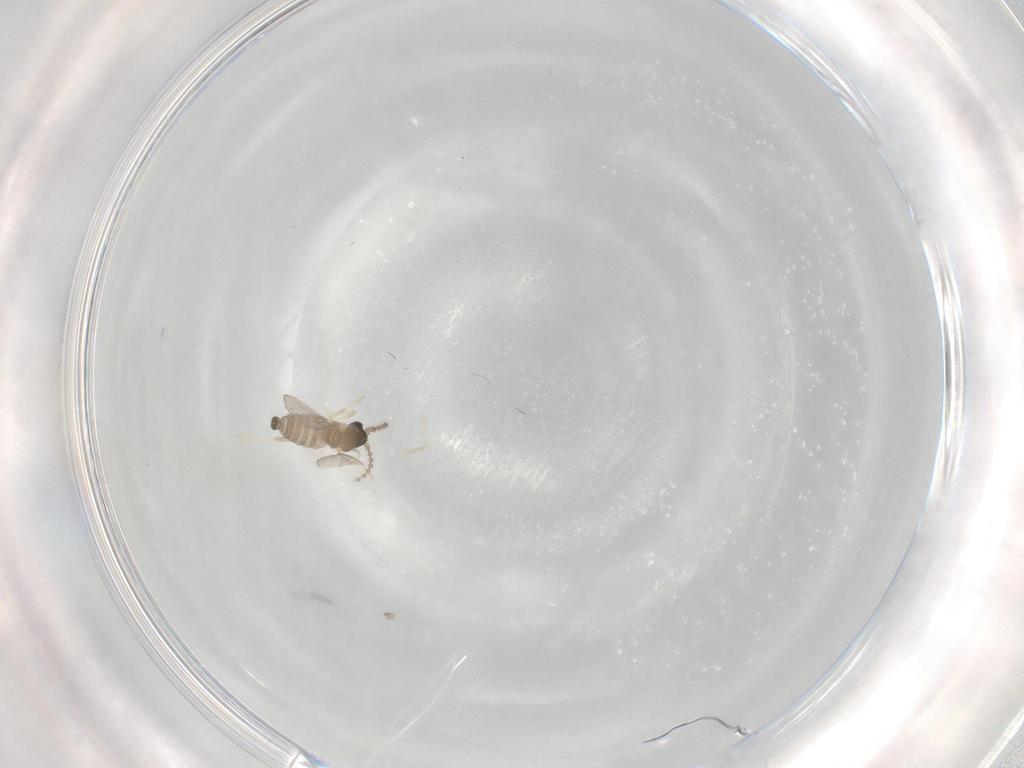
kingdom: Animalia
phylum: Arthropoda
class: Insecta
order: Diptera
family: Cecidomyiidae
